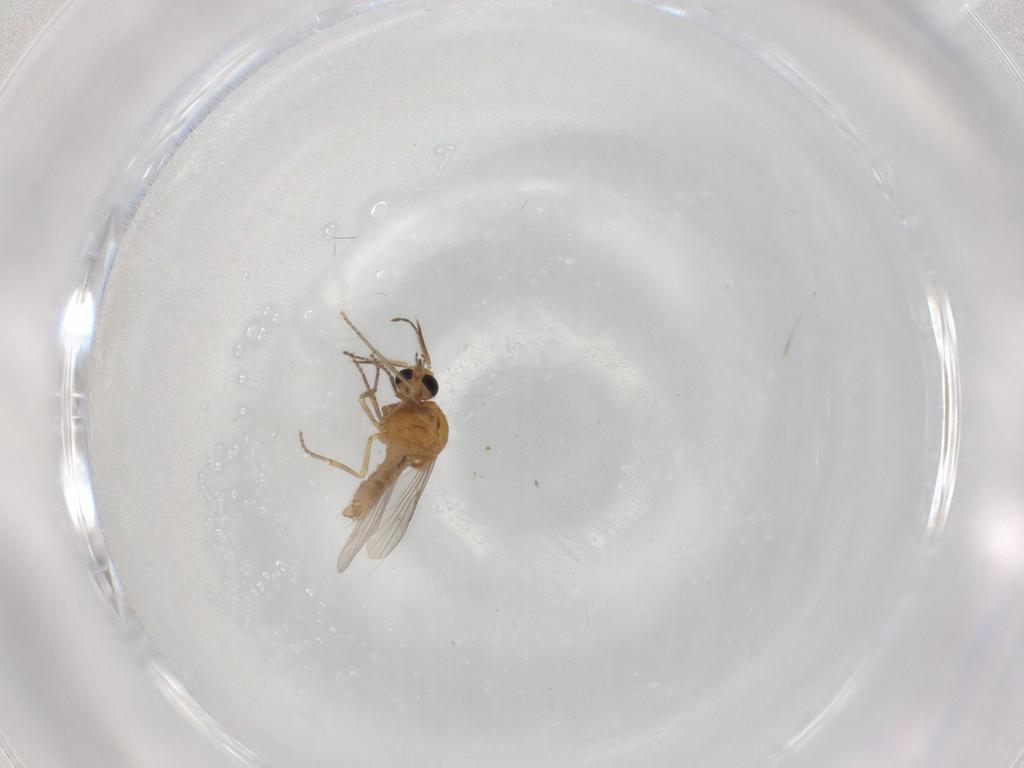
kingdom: Animalia
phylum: Arthropoda
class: Insecta
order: Diptera
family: Ceratopogonidae
